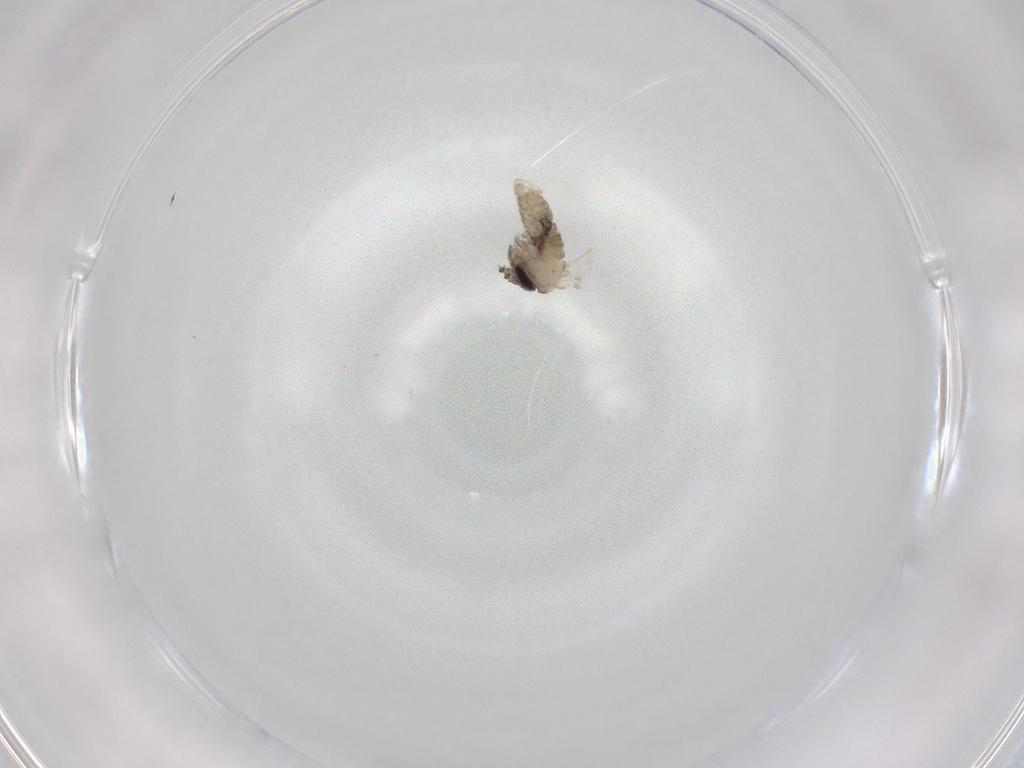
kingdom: Animalia
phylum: Arthropoda
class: Insecta
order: Diptera
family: Psychodidae
